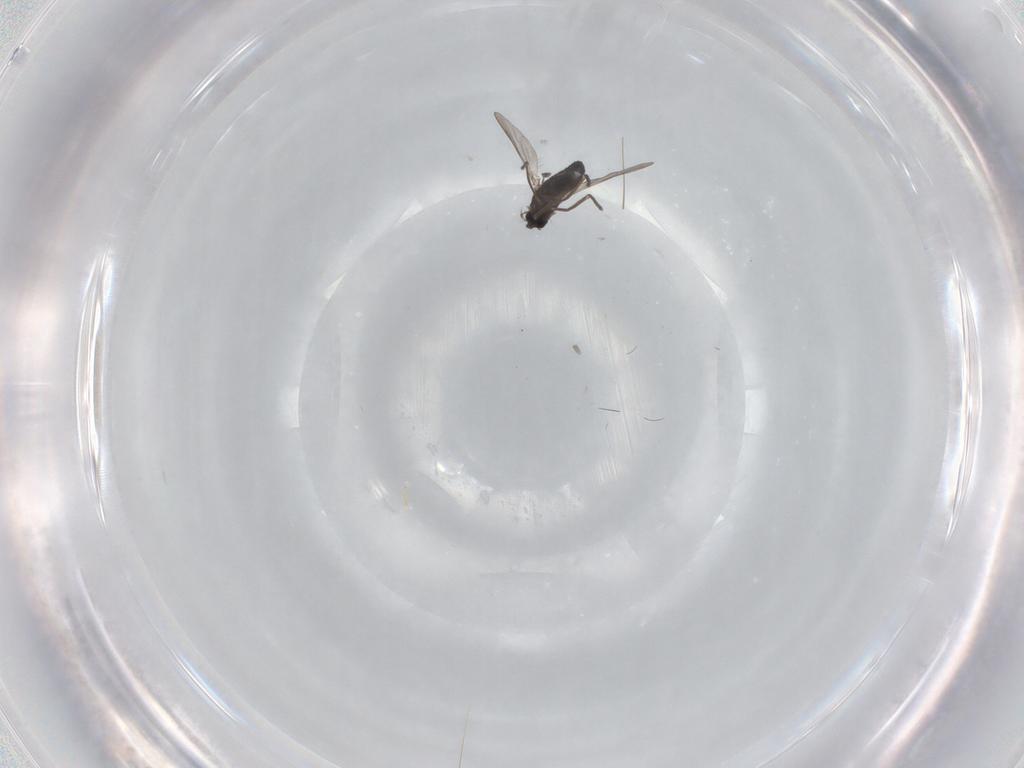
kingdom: Animalia
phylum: Arthropoda
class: Insecta
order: Diptera
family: Chironomidae
